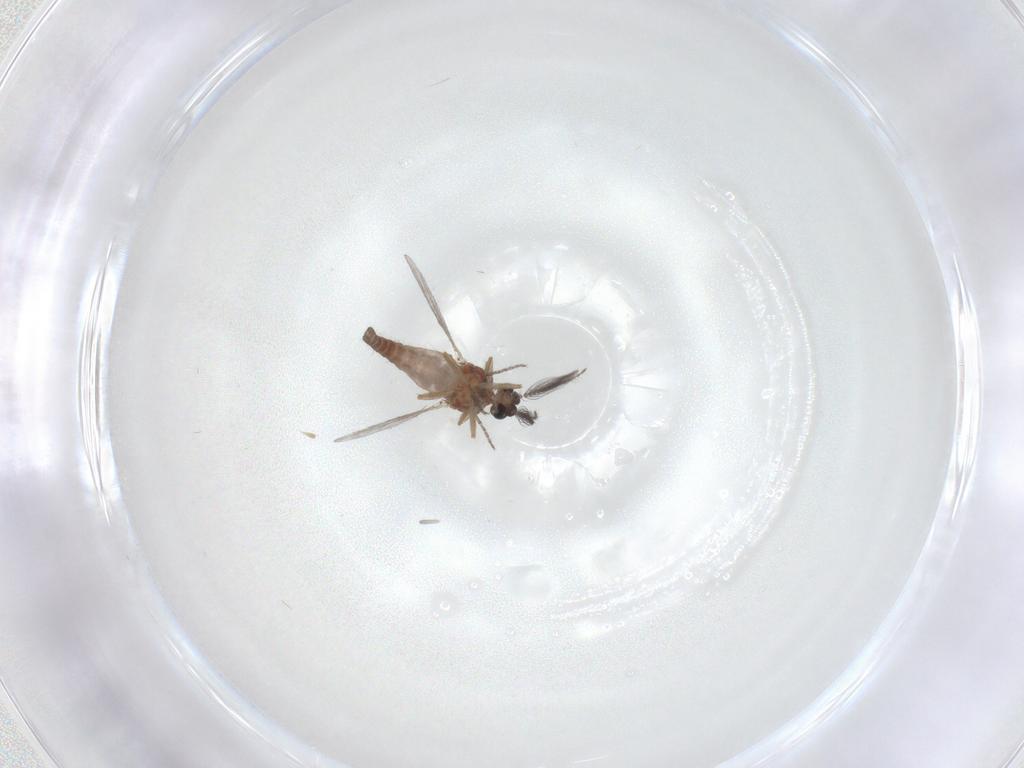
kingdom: Animalia
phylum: Arthropoda
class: Insecta
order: Diptera
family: Ceratopogonidae
